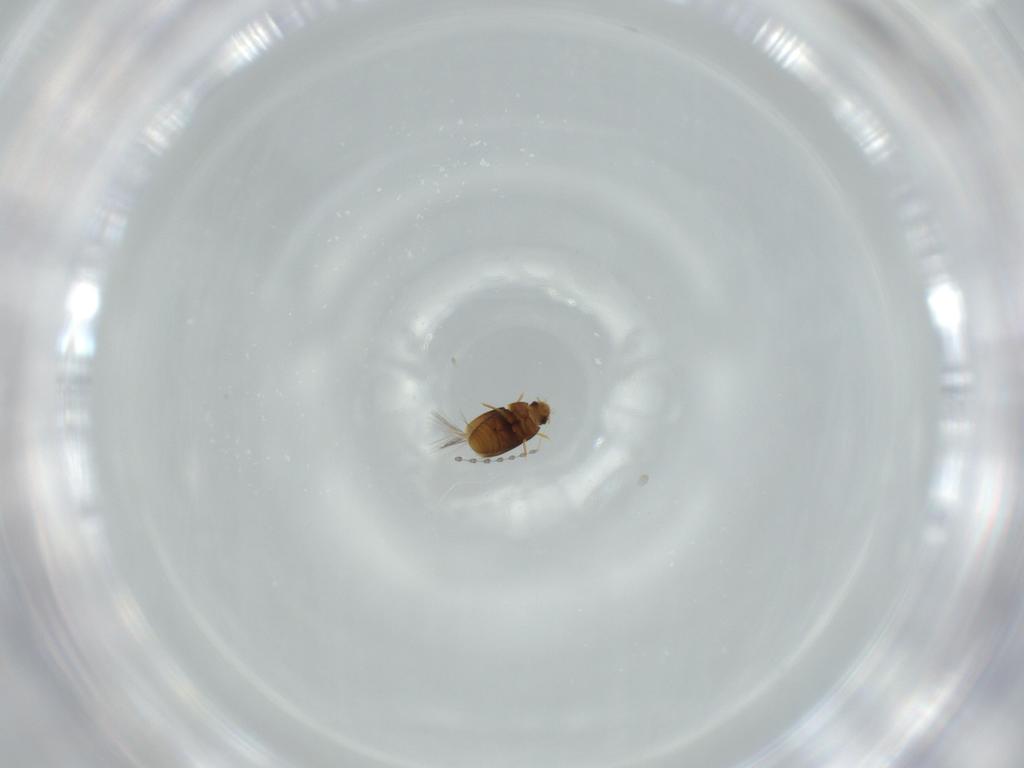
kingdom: Animalia
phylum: Arthropoda
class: Insecta
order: Coleoptera
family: Ptiliidae
